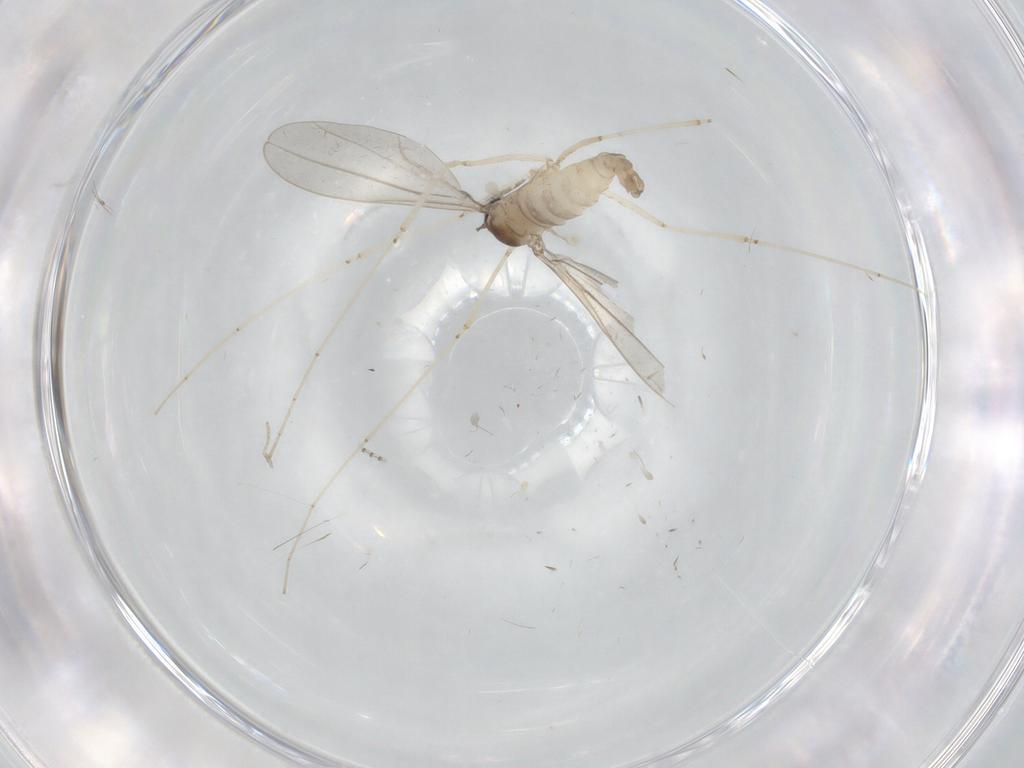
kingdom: Animalia
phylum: Arthropoda
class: Insecta
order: Diptera
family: Cecidomyiidae
